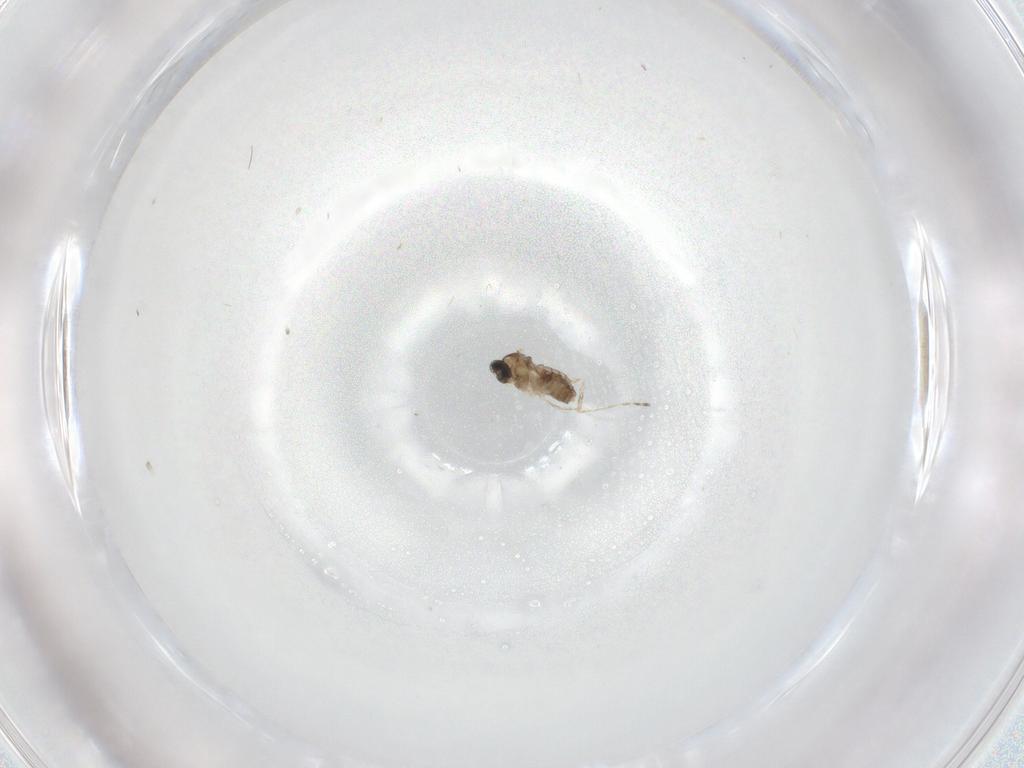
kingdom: Animalia
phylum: Arthropoda
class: Insecta
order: Diptera
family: Cecidomyiidae
